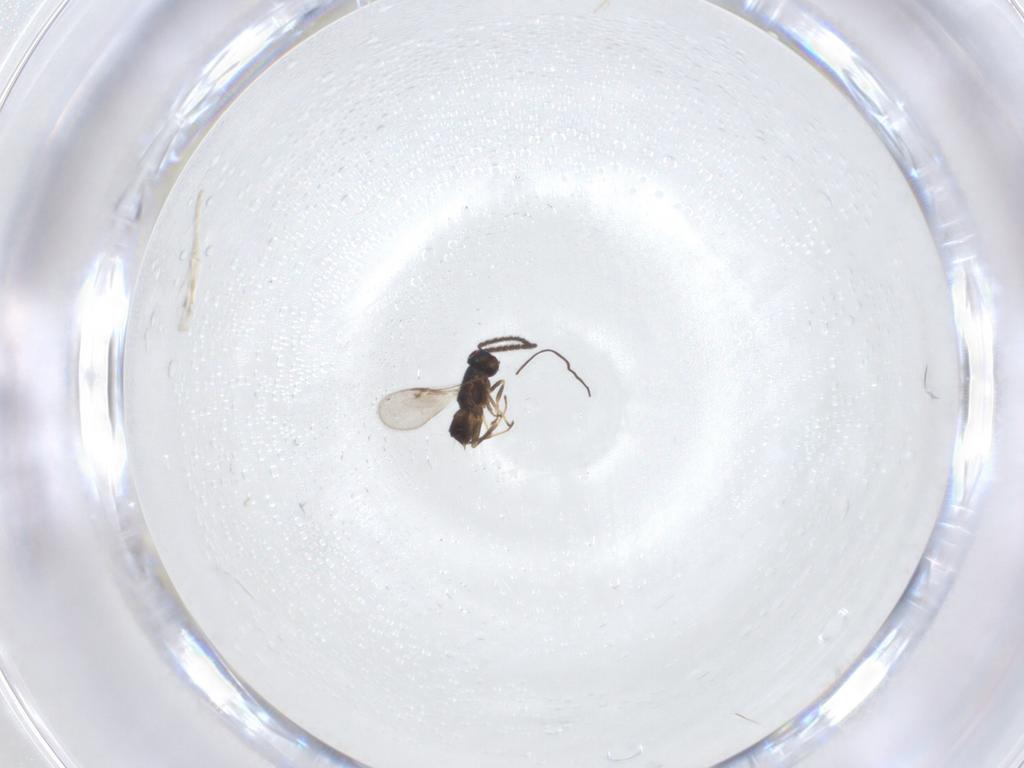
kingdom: Animalia
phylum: Arthropoda
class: Insecta
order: Hymenoptera
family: Encyrtidae
